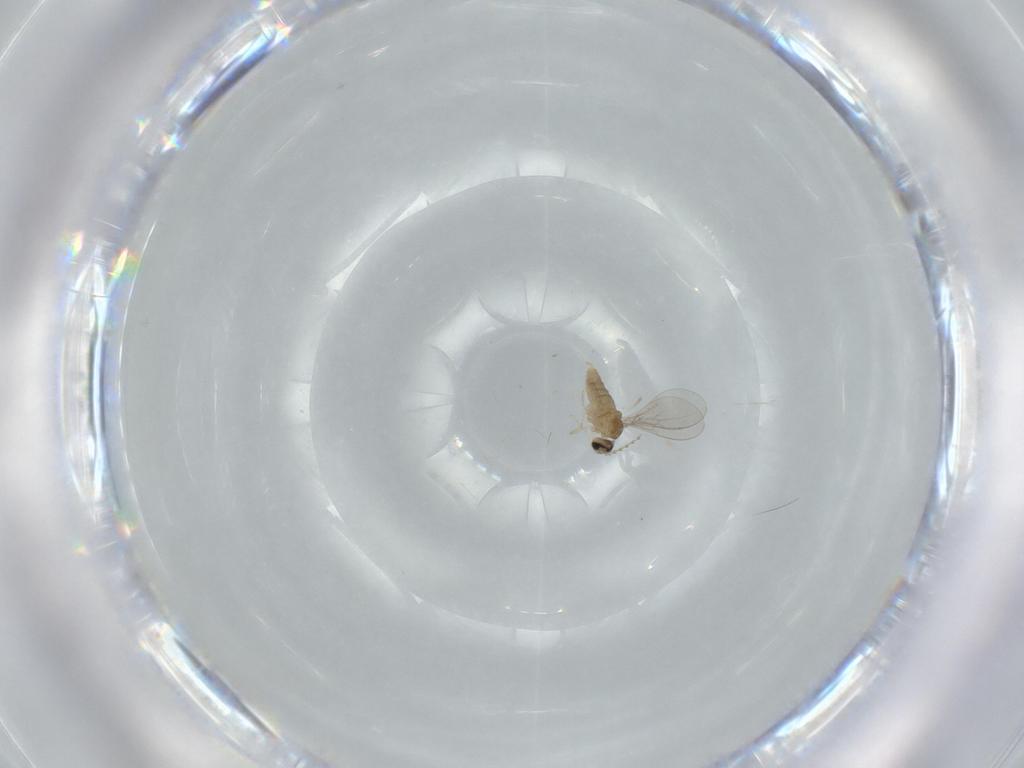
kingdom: Animalia
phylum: Arthropoda
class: Insecta
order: Diptera
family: Cecidomyiidae
